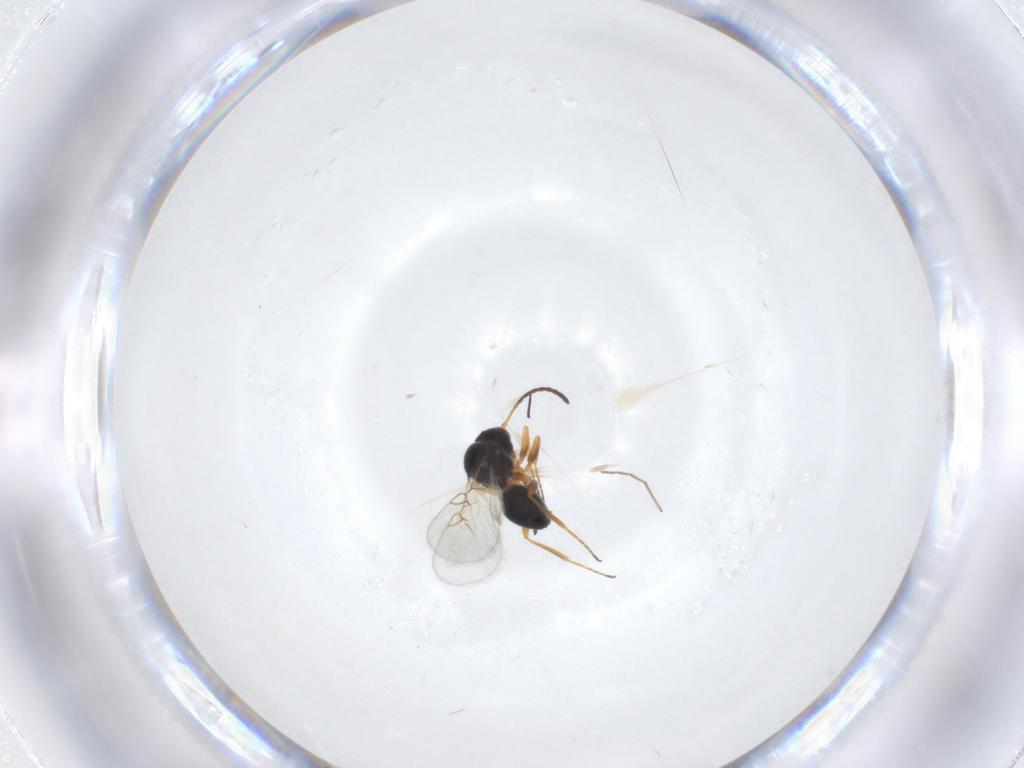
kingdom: Animalia
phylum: Arthropoda
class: Insecta
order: Hymenoptera
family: Figitidae
